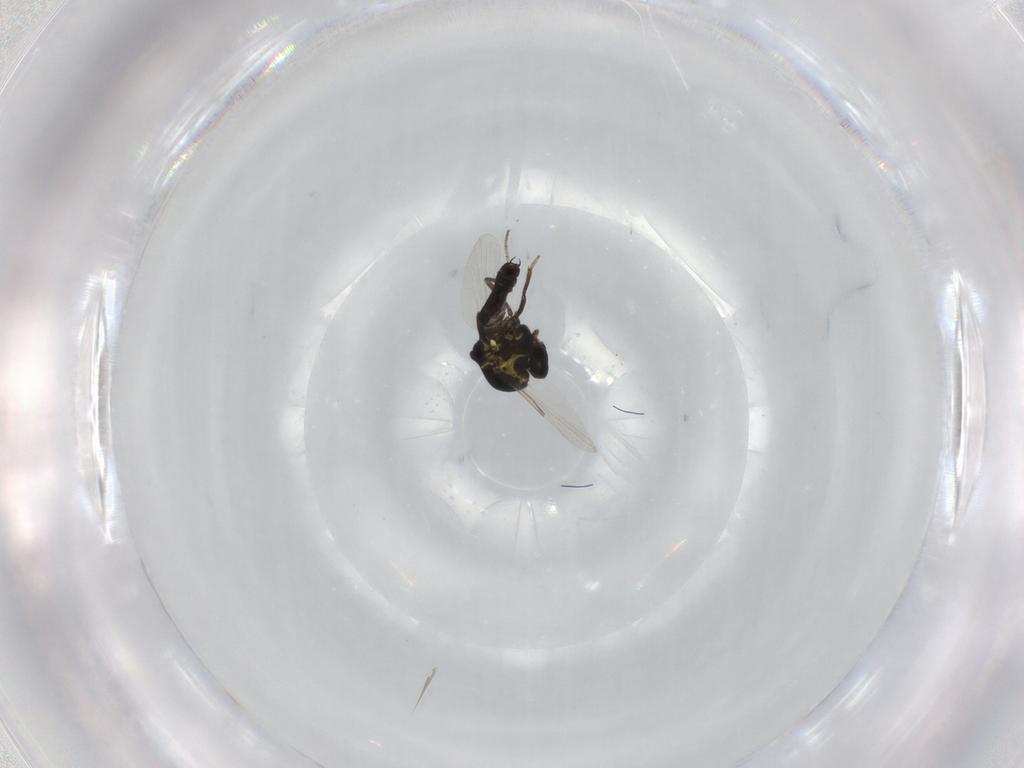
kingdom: Animalia
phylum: Arthropoda
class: Insecta
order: Diptera
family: Ceratopogonidae
